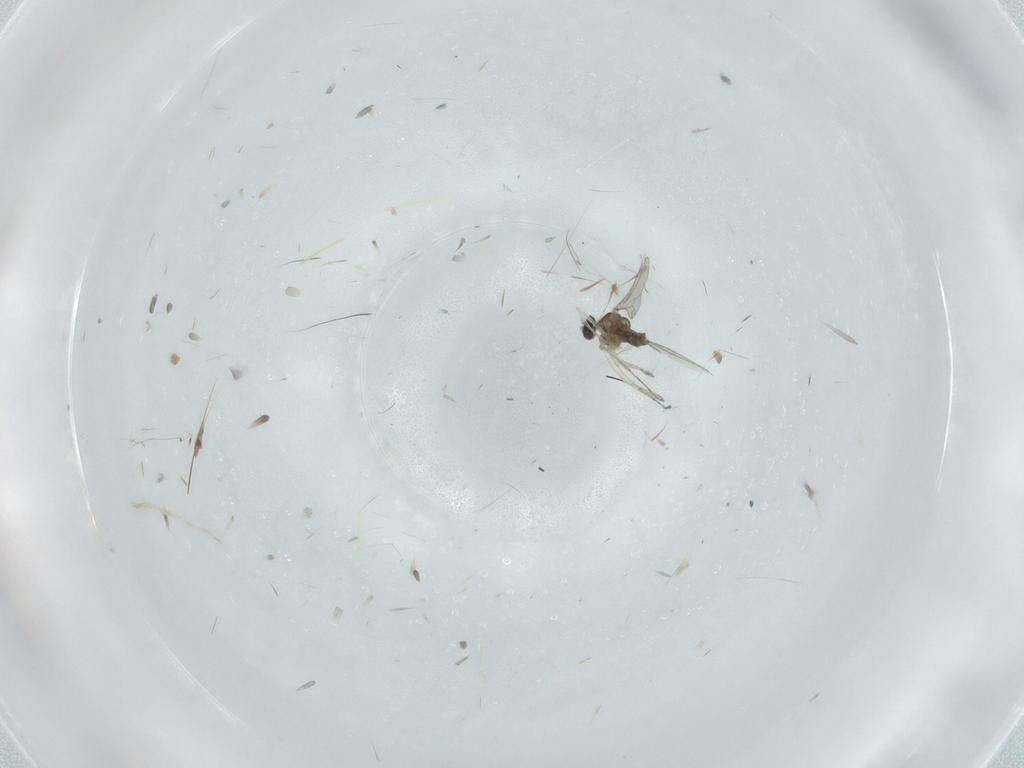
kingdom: Animalia
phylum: Arthropoda
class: Insecta
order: Diptera
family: Cecidomyiidae
